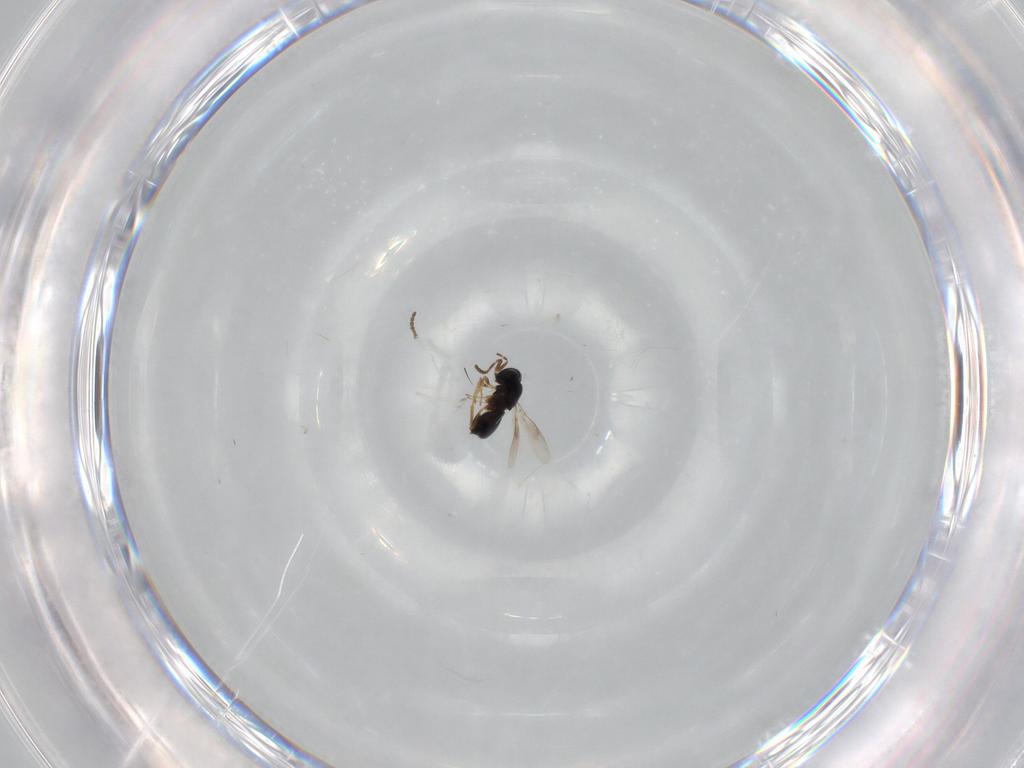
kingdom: Animalia
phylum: Arthropoda
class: Insecta
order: Hymenoptera
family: Scelionidae
